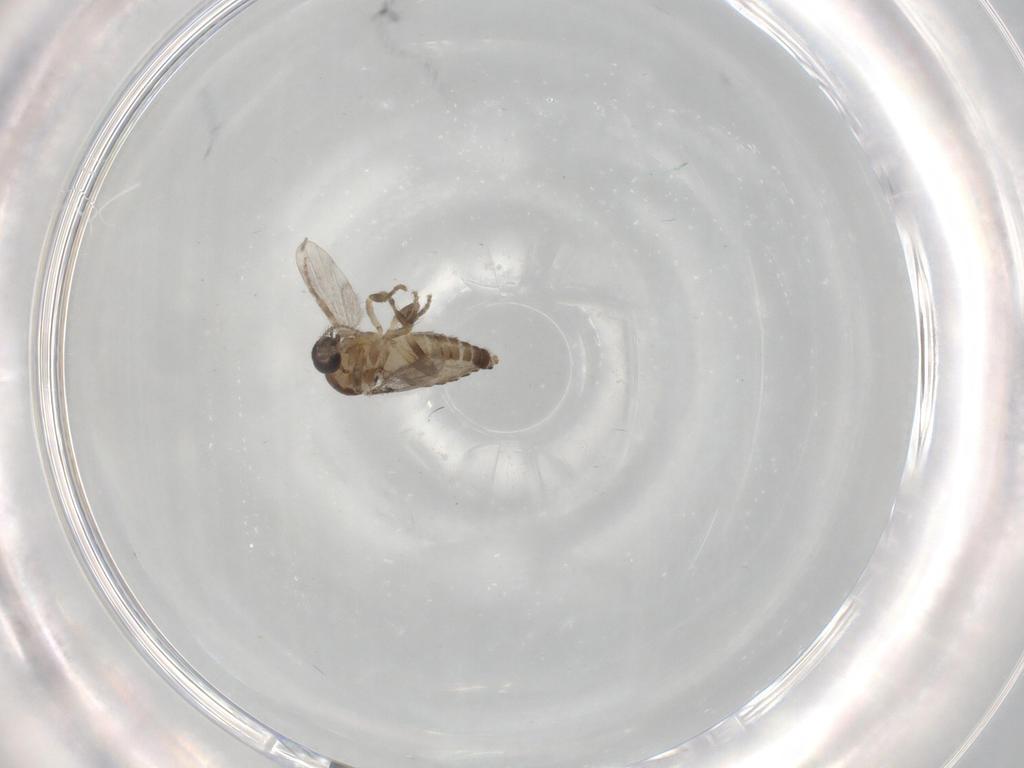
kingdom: Animalia
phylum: Arthropoda
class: Insecta
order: Diptera
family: Ceratopogonidae
